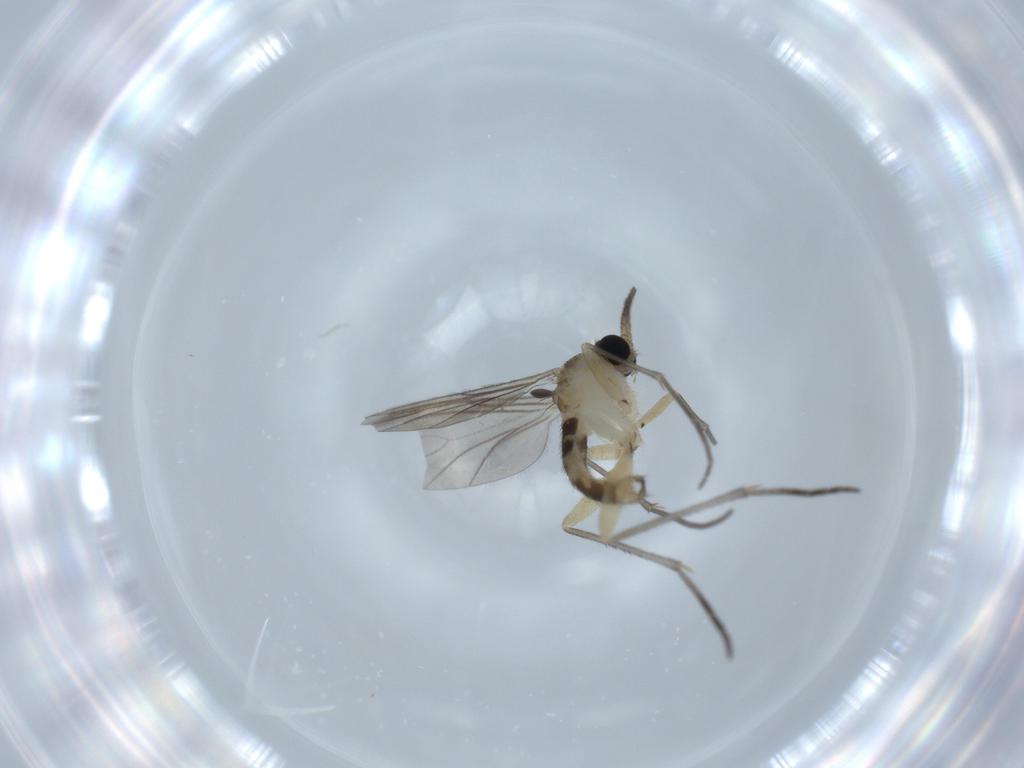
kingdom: Animalia
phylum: Arthropoda
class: Insecta
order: Diptera
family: Sciaridae
